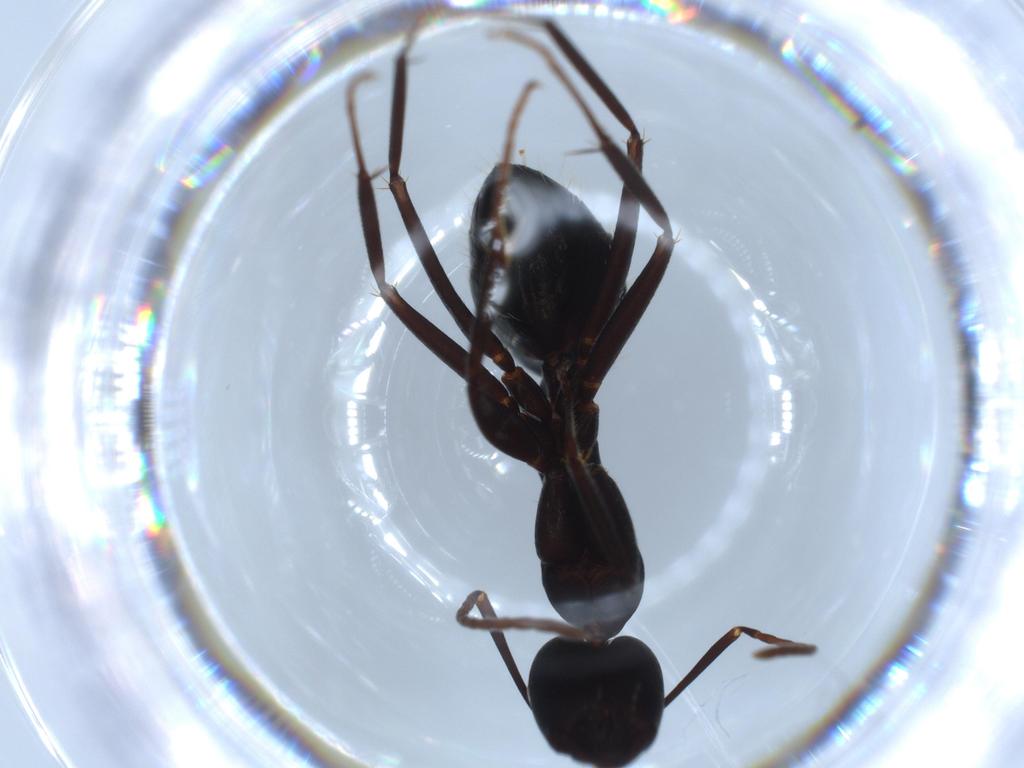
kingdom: Animalia
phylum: Arthropoda
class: Insecta
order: Hymenoptera
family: Formicidae
